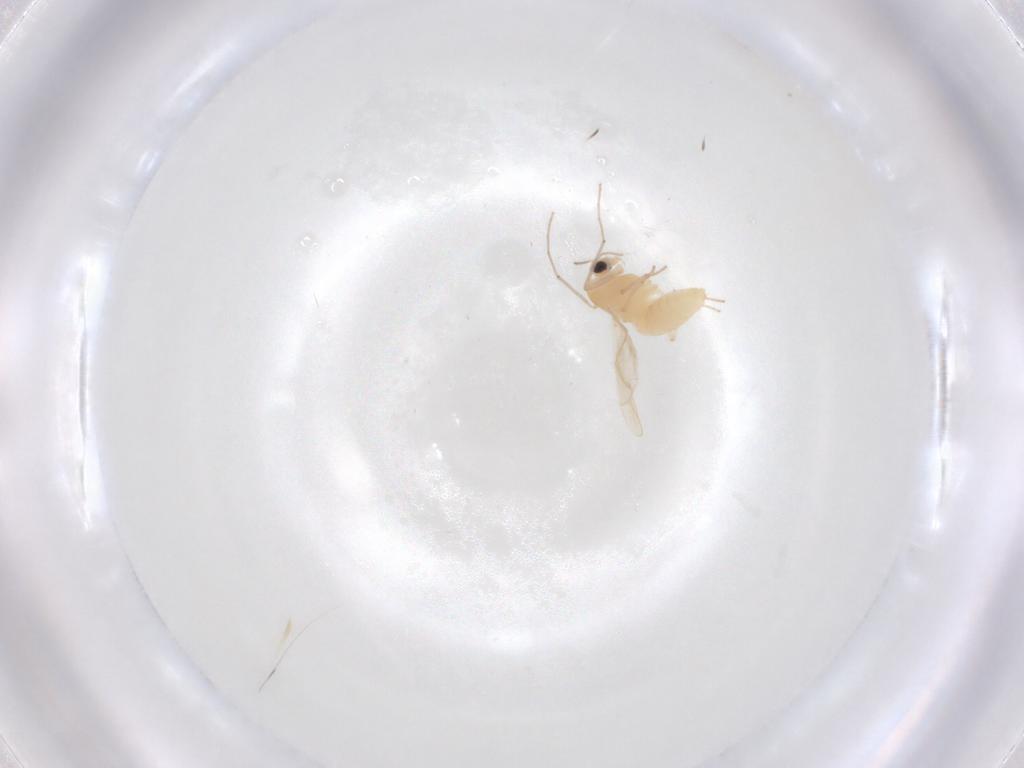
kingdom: Animalia
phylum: Arthropoda
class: Insecta
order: Diptera
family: Chironomidae
